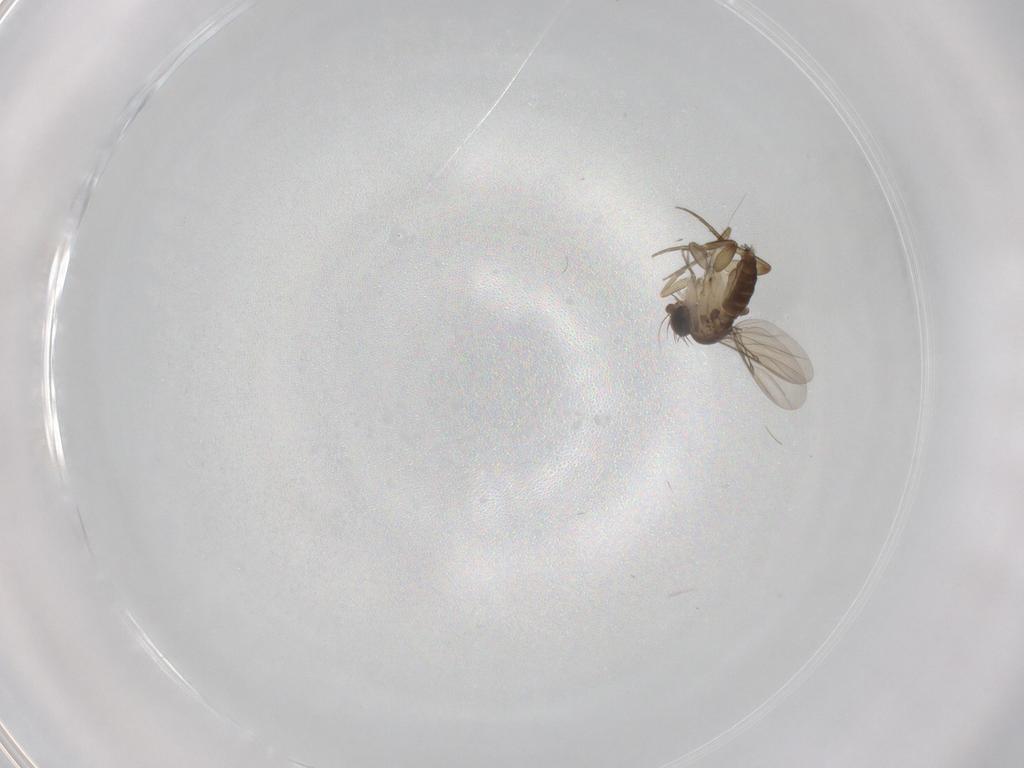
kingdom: Animalia
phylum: Arthropoda
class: Insecta
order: Diptera
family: Phoridae
